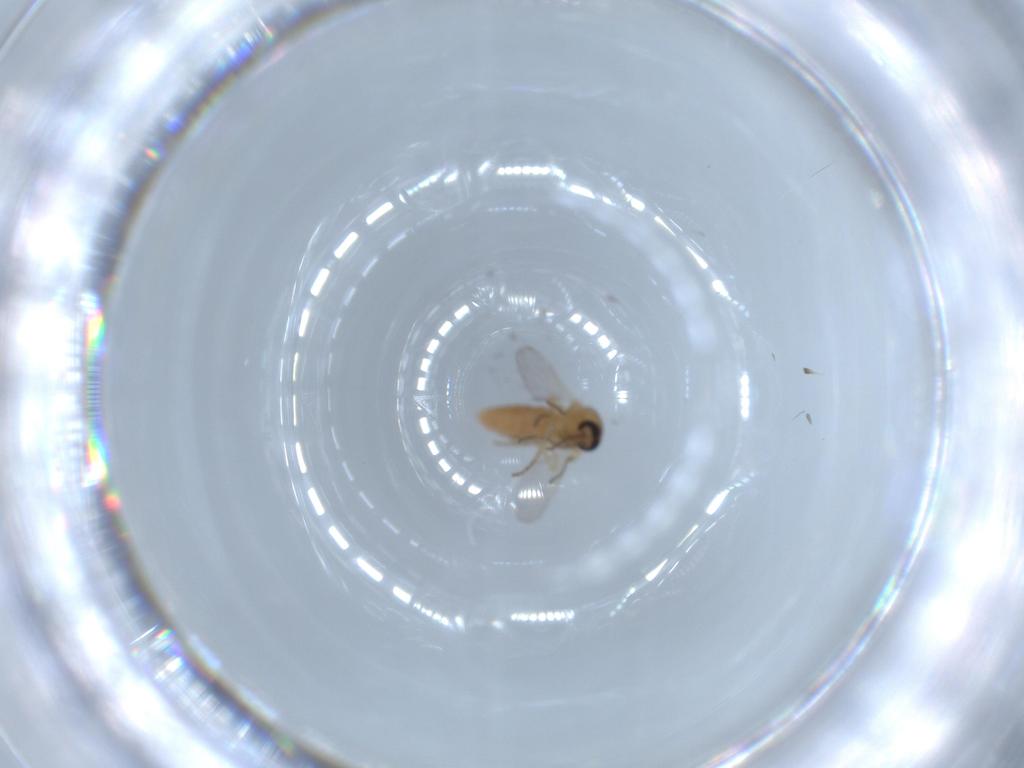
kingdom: Animalia
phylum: Arthropoda
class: Insecta
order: Diptera
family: Ceratopogonidae
